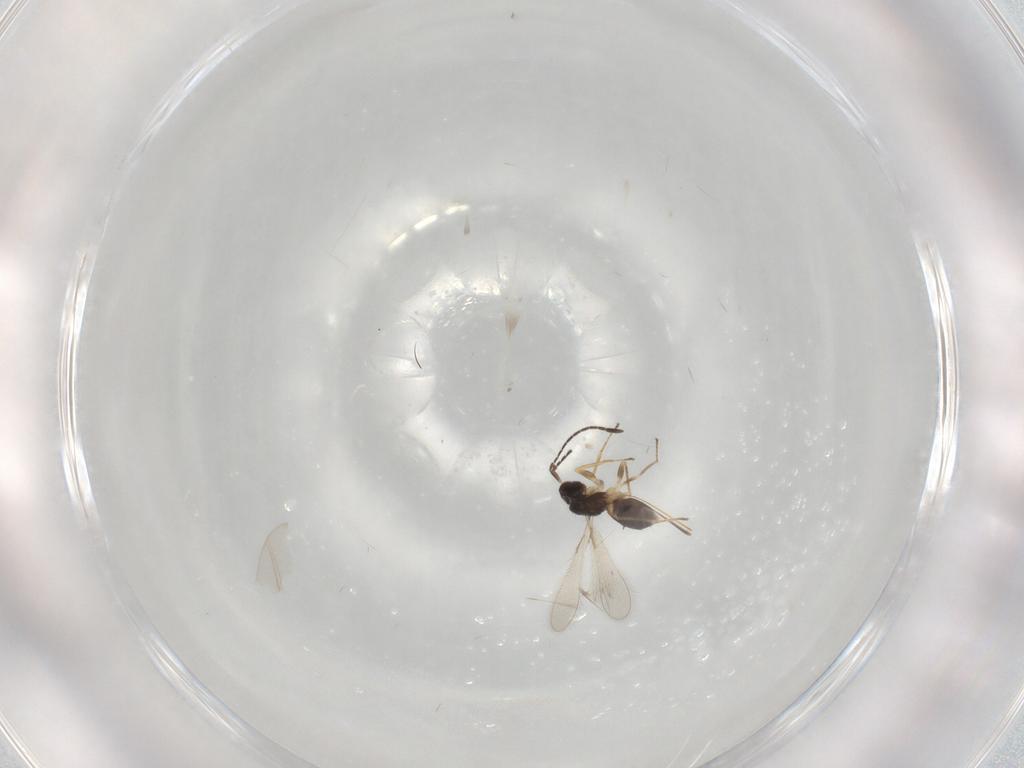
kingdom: Animalia
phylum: Arthropoda
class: Insecta
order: Hymenoptera
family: Mymaridae
